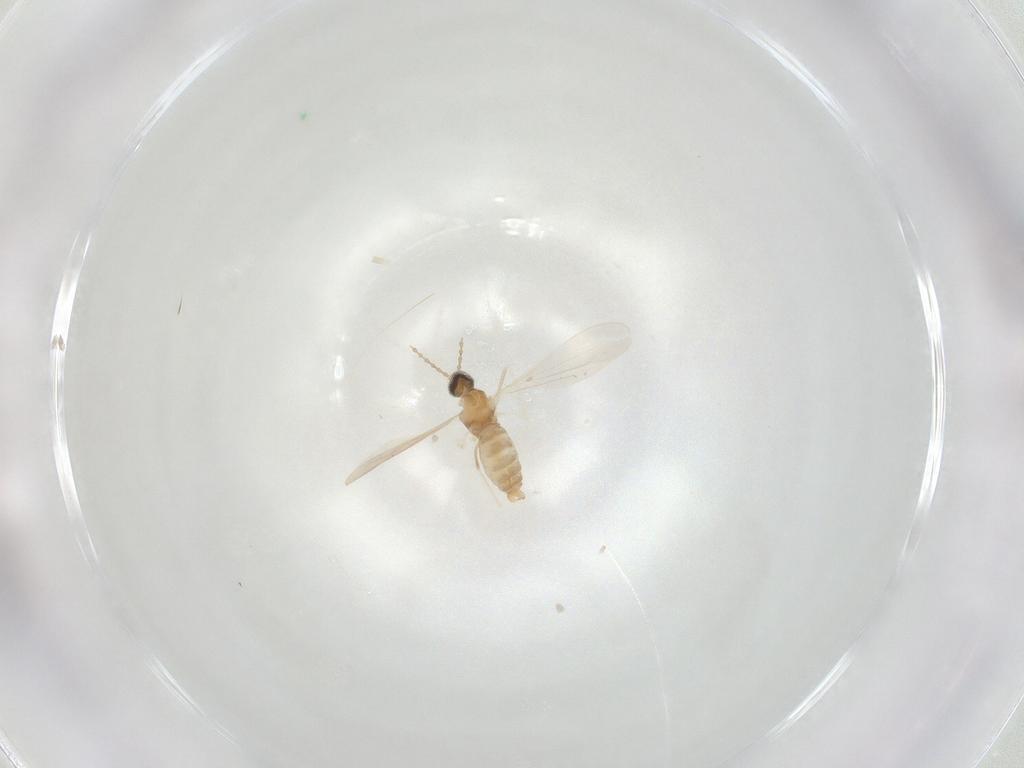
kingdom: Animalia
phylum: Arthropoda
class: Insecta
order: Diptera
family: Cecidomyiidae
